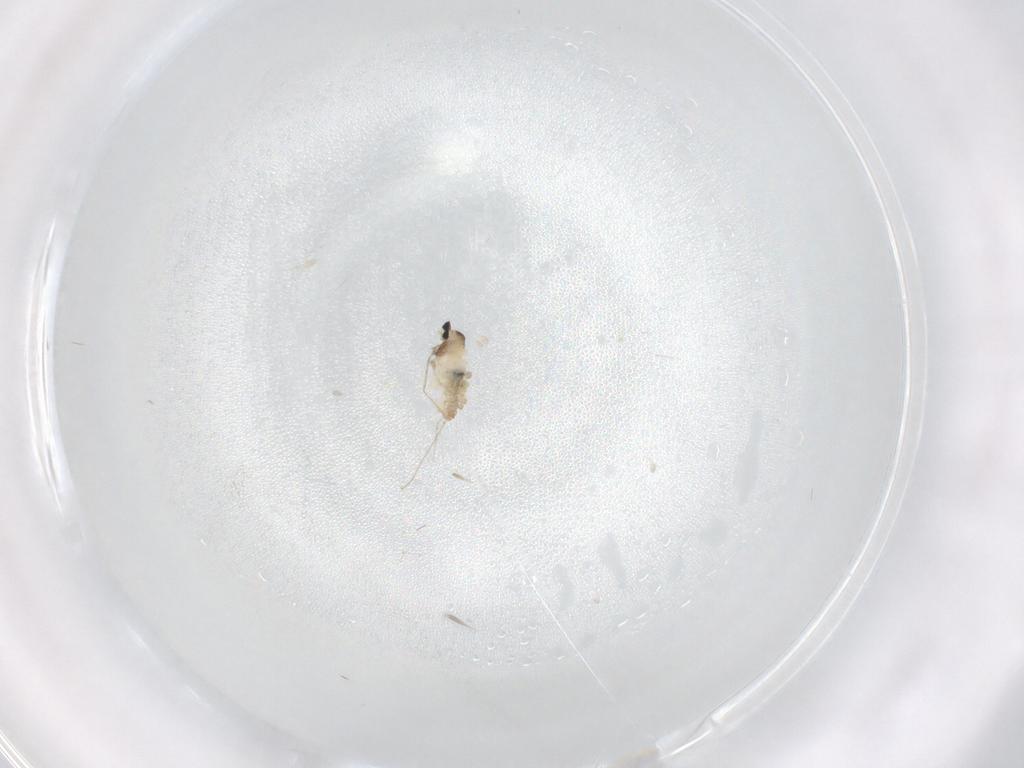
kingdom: Animalia
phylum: Arthropoda
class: Insecta
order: Diptera
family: Cecidomyiidae
